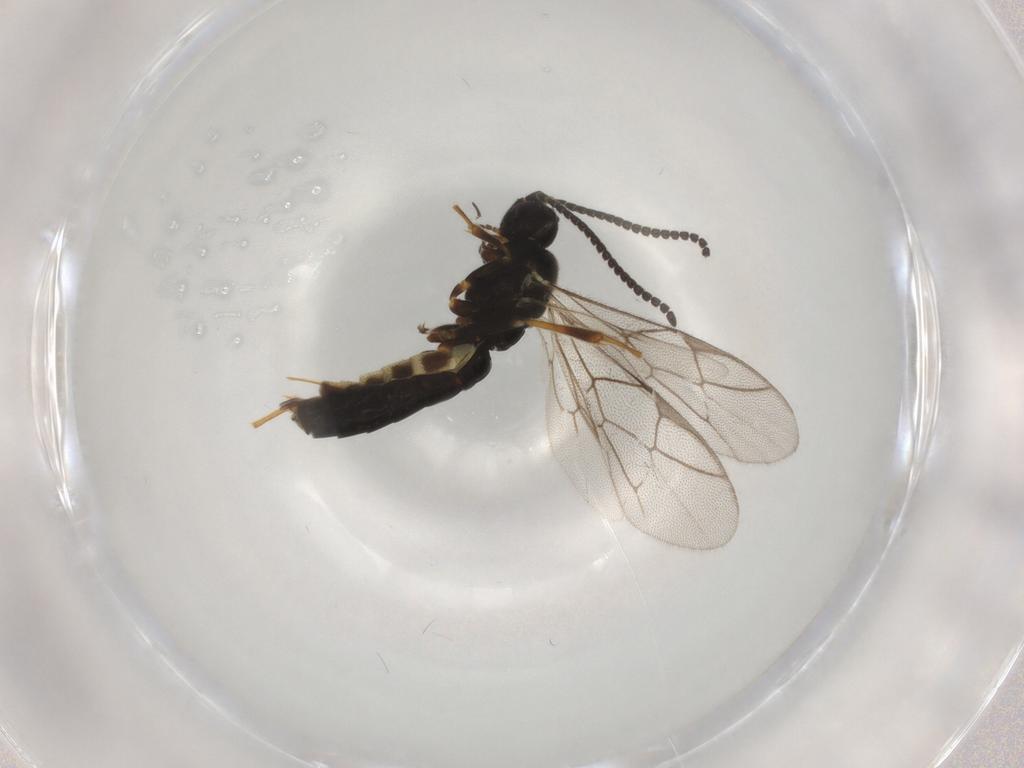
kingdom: Animalia
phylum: Arthropoda
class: Insecta
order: Hymenoptera
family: Ichneumonidae
